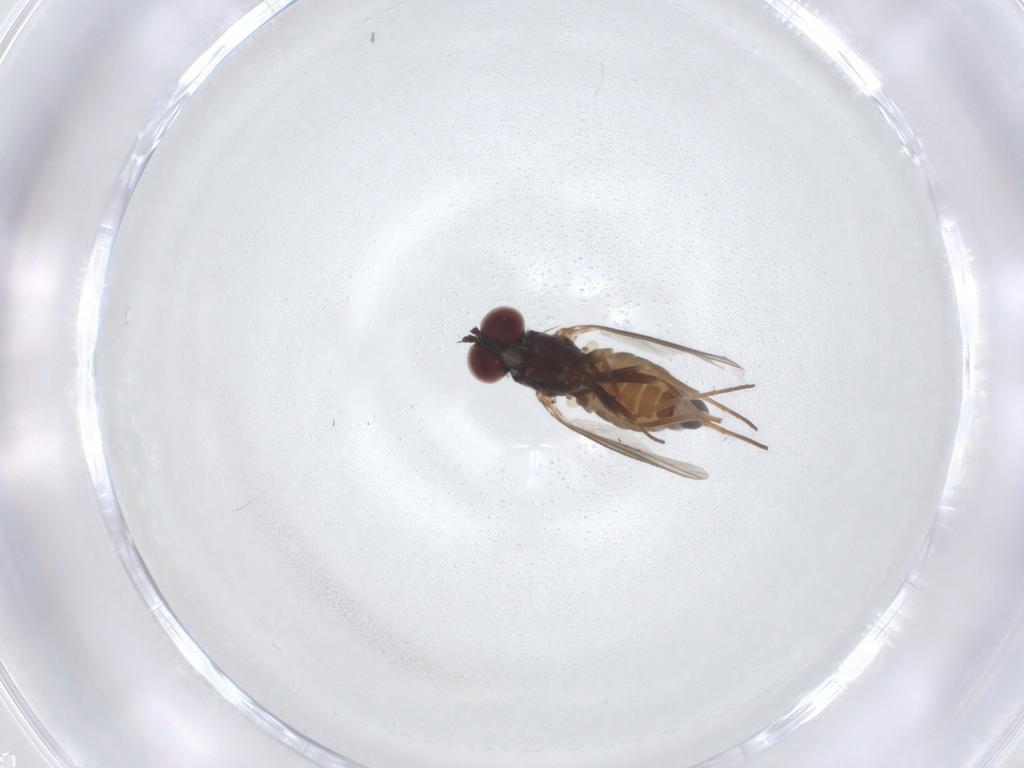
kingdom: Animalia
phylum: Arthropoda
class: Insecta
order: Diptera
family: Dolichopodidae
